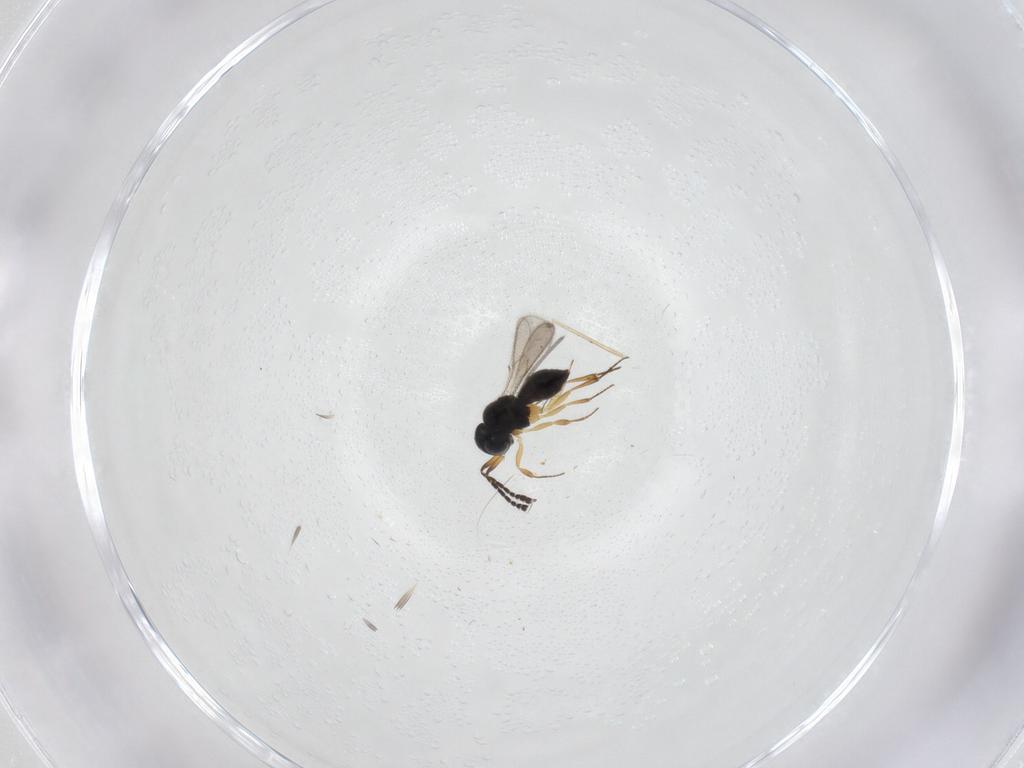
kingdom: Animalia
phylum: Arthropoda
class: Insecta
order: Hymenoptera
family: Scelionidae
